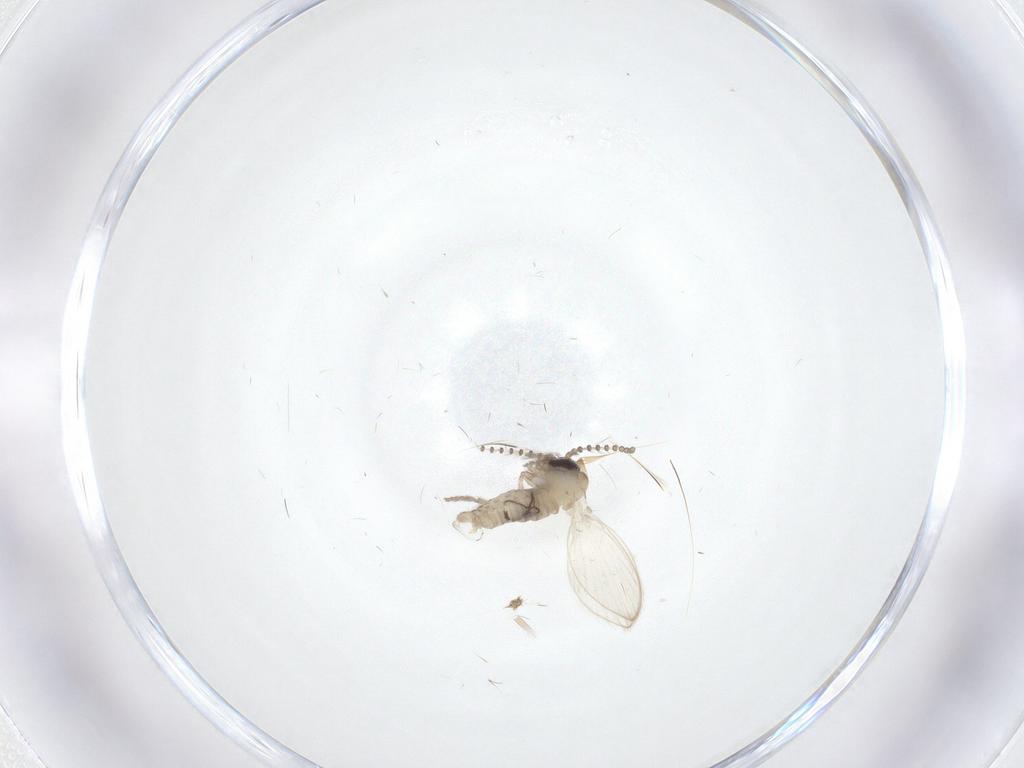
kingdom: Animalia
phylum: Arthropoda
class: Insecta
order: Diptera
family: Psychodidae
